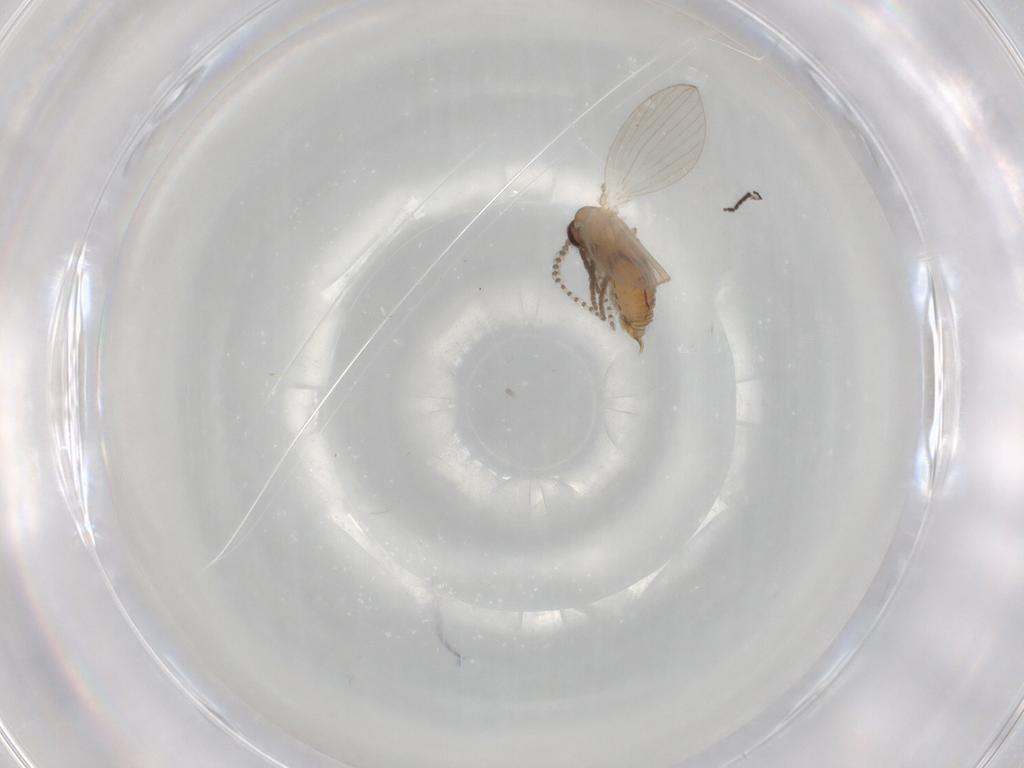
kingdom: Animalia
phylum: Arthropoda
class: Insecta
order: Diptera
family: Psychodidae
